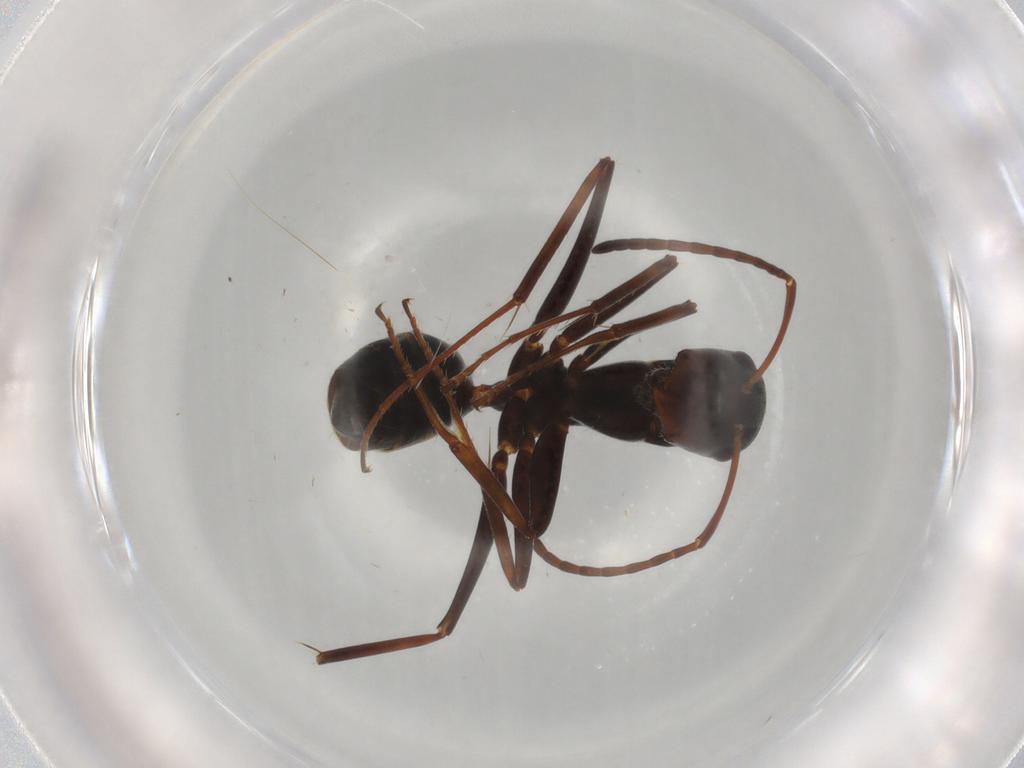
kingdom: Animalia
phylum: Arthropoda
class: Insecta
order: Hymenoptera
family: Formicidae
